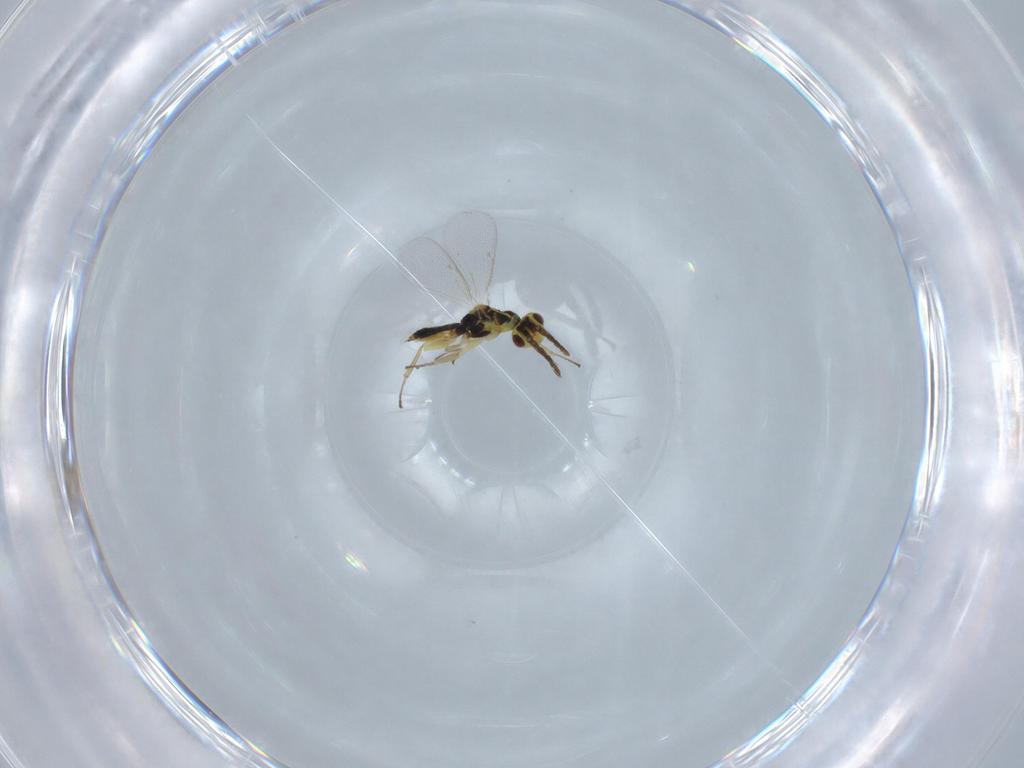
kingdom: Animalia
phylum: Arthropoda
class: Insecta
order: Hymenoptera
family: Eulophidae
